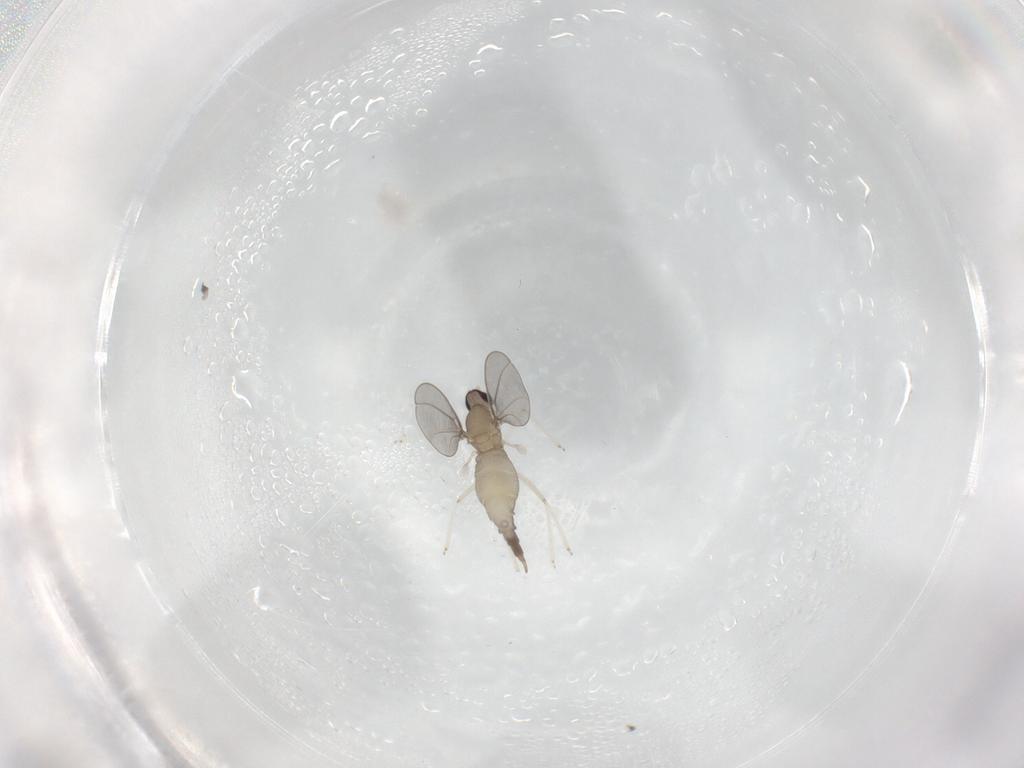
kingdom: Animalia
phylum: Arthropoda
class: Insecta
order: Diptera
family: Cecidomyiidae
